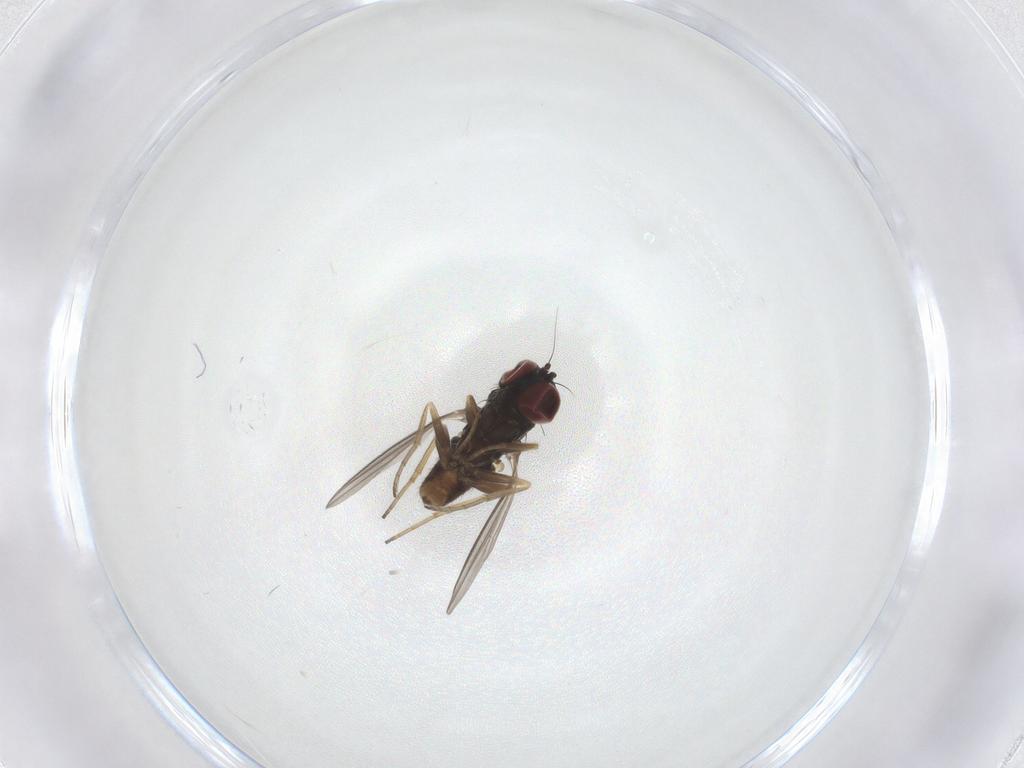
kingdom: Animalia
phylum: Arthropoda
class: Insecta
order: Diptera
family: Dolichopodidae
